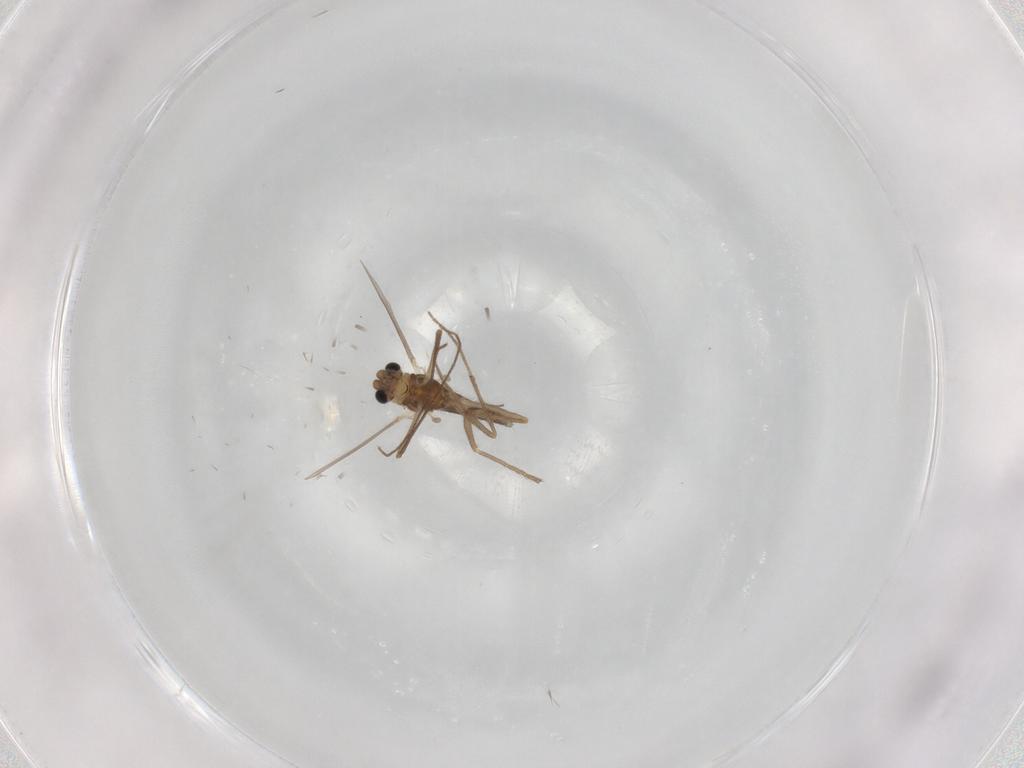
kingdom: Animalia
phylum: Arthropoda
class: Insecta
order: Diptera
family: Chironomidae
